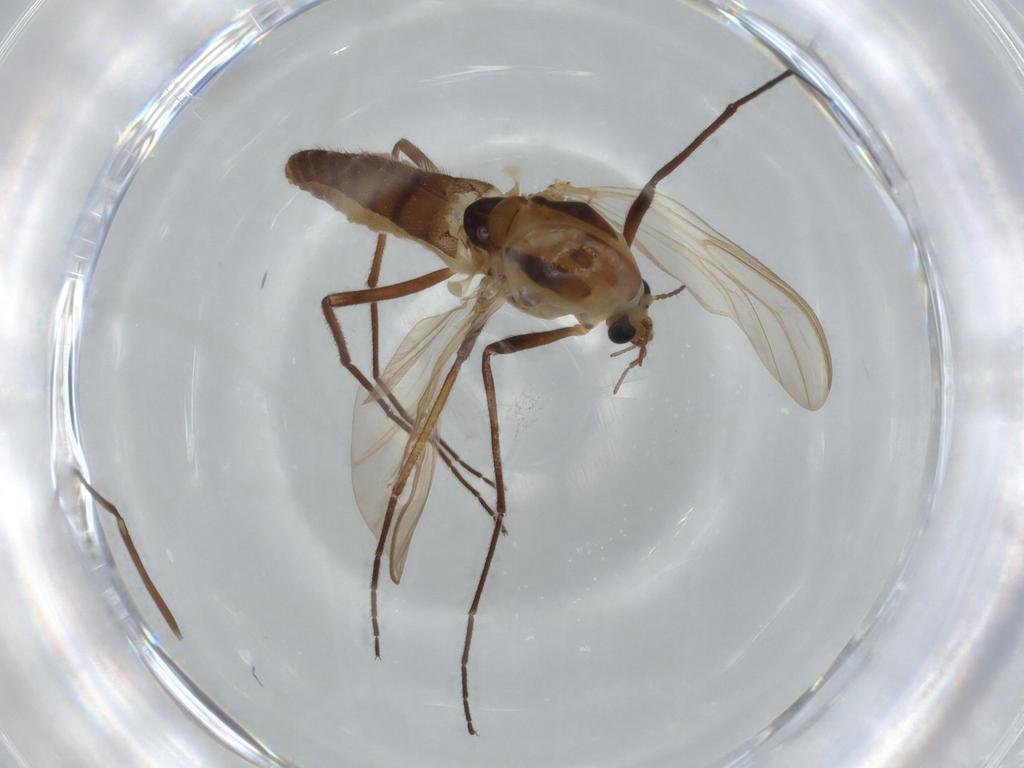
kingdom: Animalia
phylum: Arthropoda
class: Insecta
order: Diptera
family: Drosophilidae
